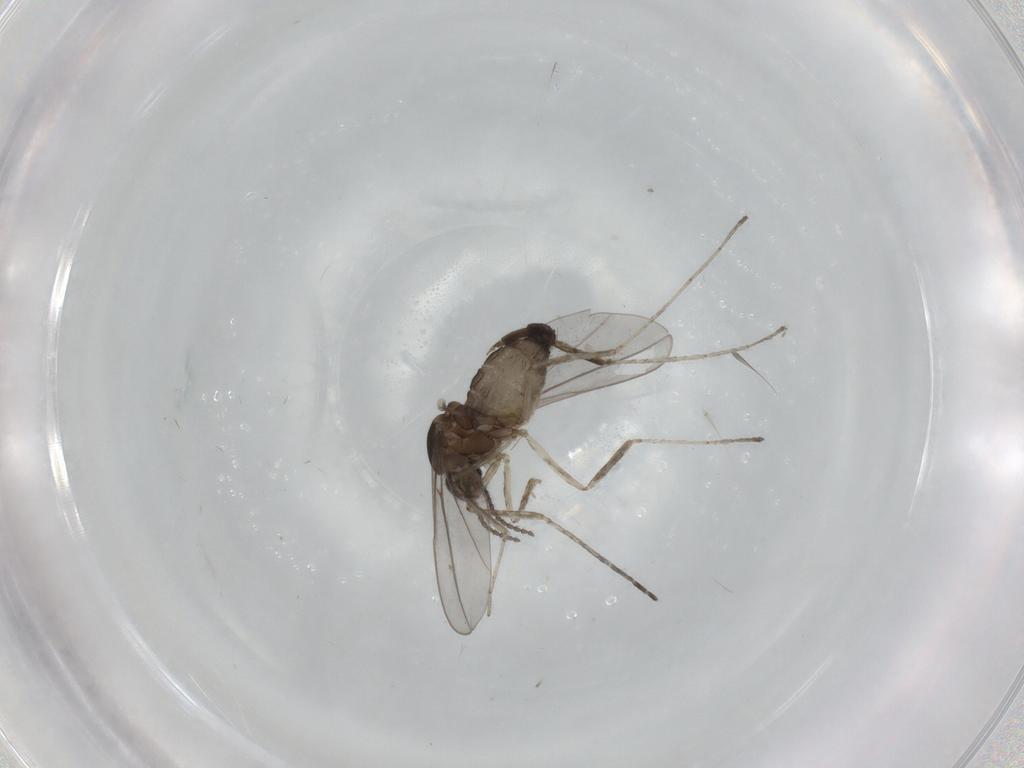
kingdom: Animalia
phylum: Arthropoda
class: Insecta
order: Diptera
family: Cecidomyiidae
